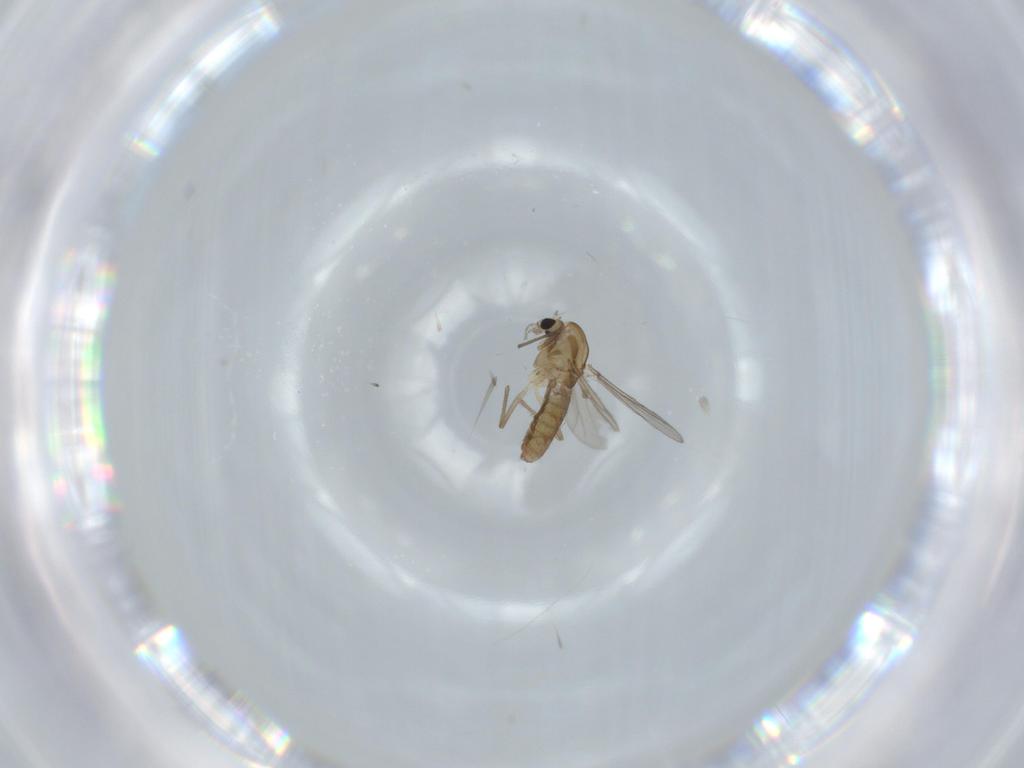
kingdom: Animalia
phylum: Arthropoda
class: Insecta
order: Diptera
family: Chironomidae
